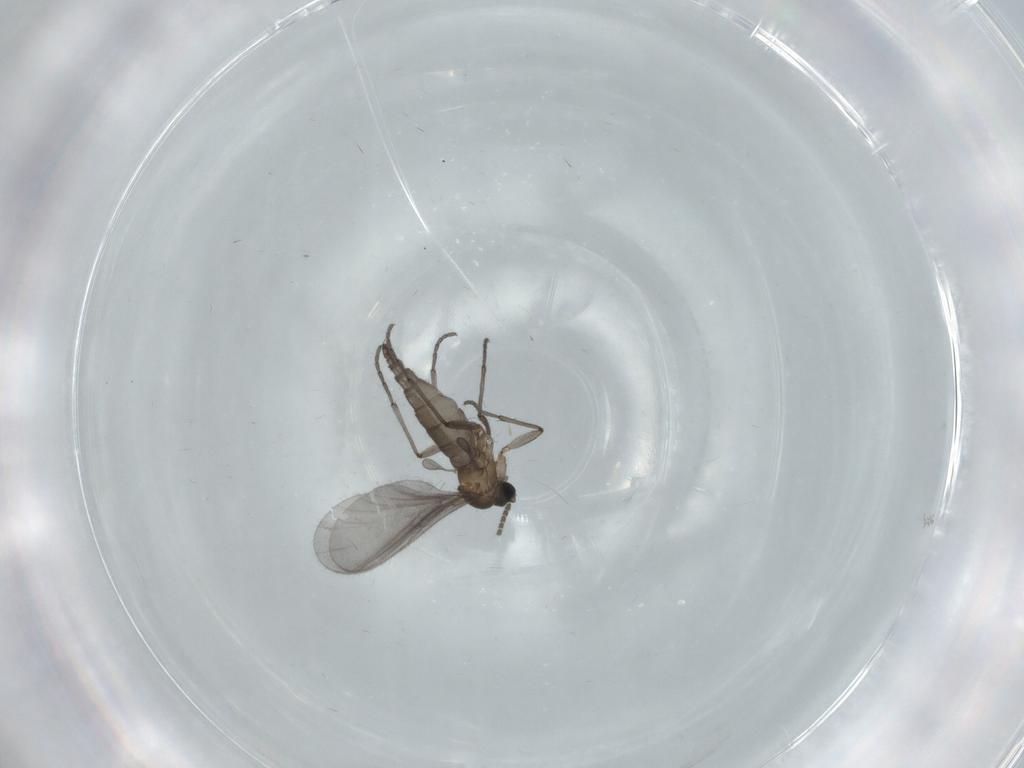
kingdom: Animalia
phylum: Arthropoda
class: Insecta
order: Diptera
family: Sciaridae
